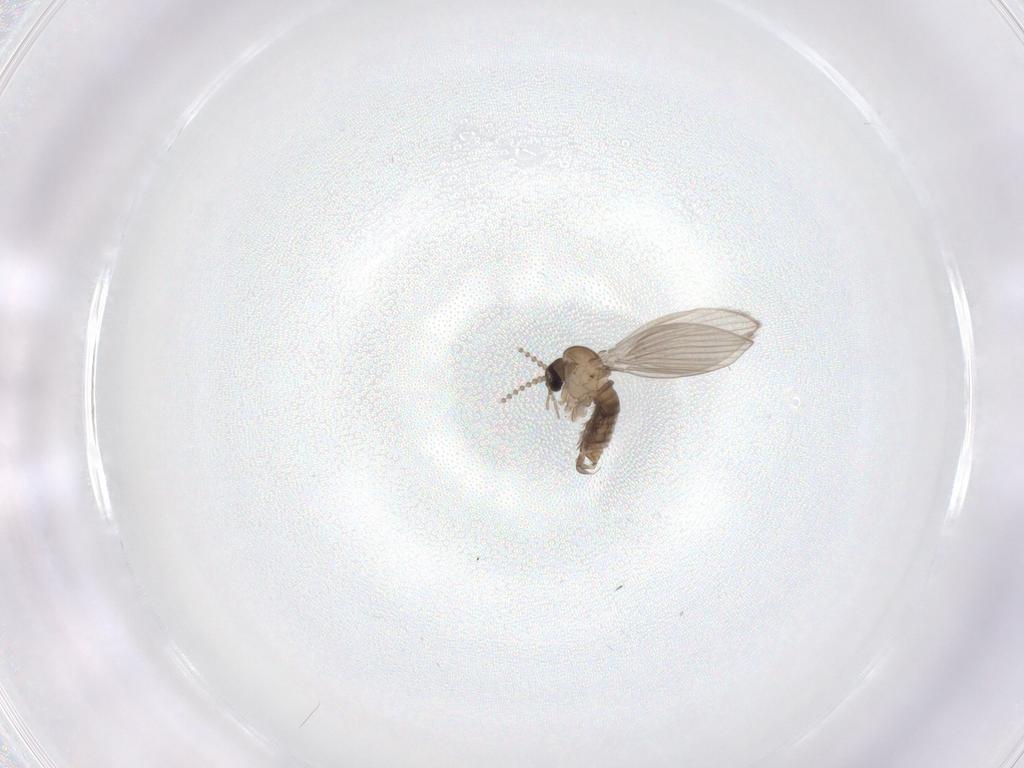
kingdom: Animalia
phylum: Arthropoda
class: Insecta
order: Diptera
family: Psychodidae
